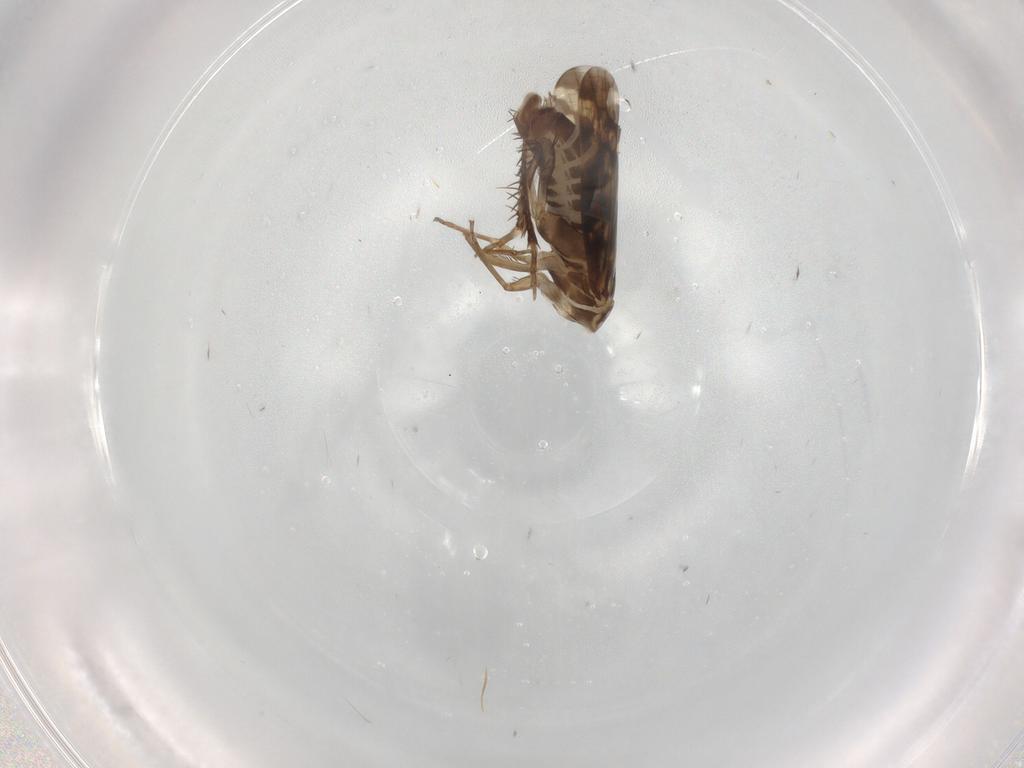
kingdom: Animalia
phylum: Arthropoda
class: Insecta
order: Hemiptera
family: Cicadellidae
